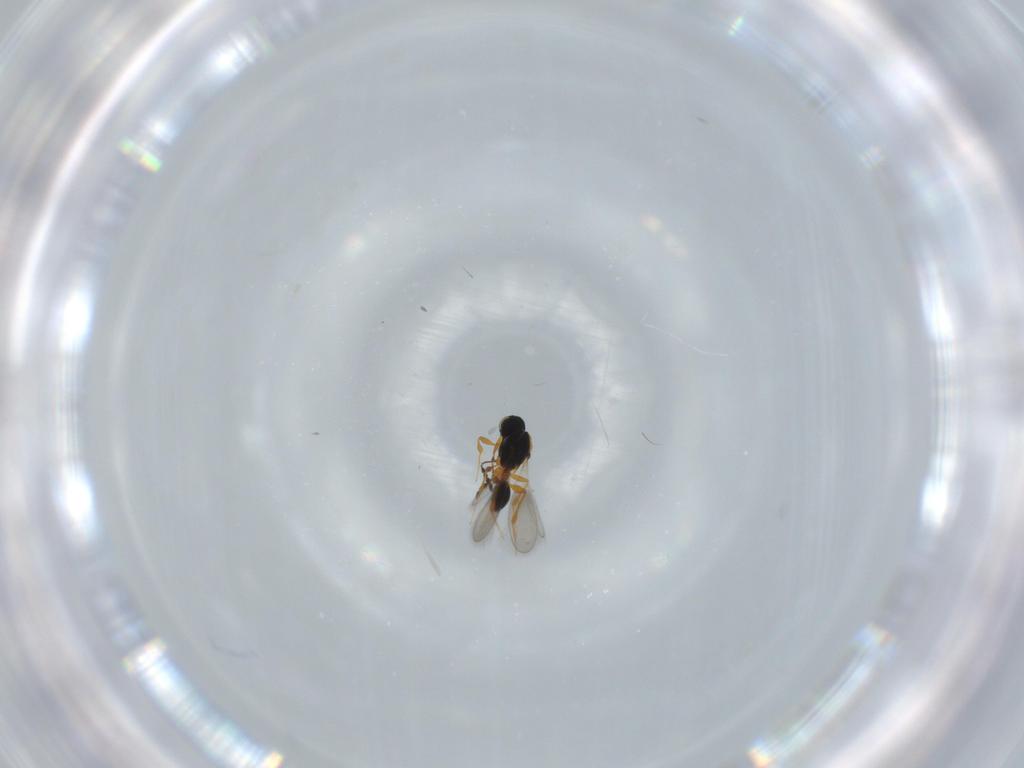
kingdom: Animalia
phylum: Arthropoda
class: Insecta
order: Hymenoptera
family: Platygastridae
